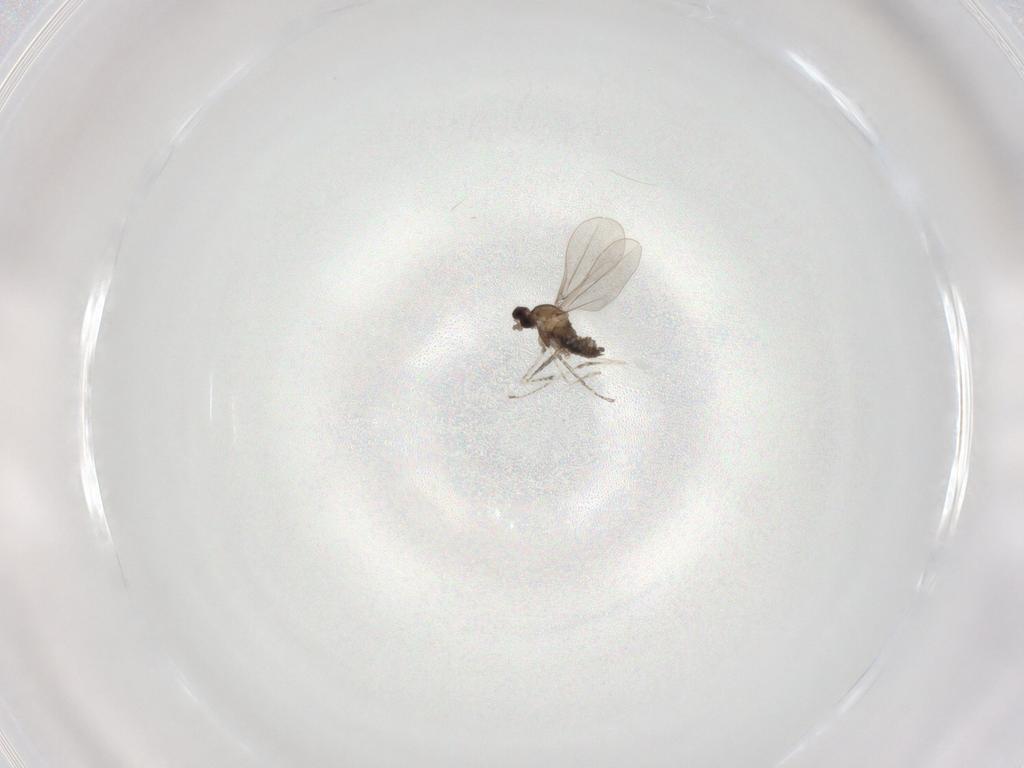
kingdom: Animalia
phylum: Arthropoda
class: Insecta
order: Diptera
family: Cecidomyiidae
